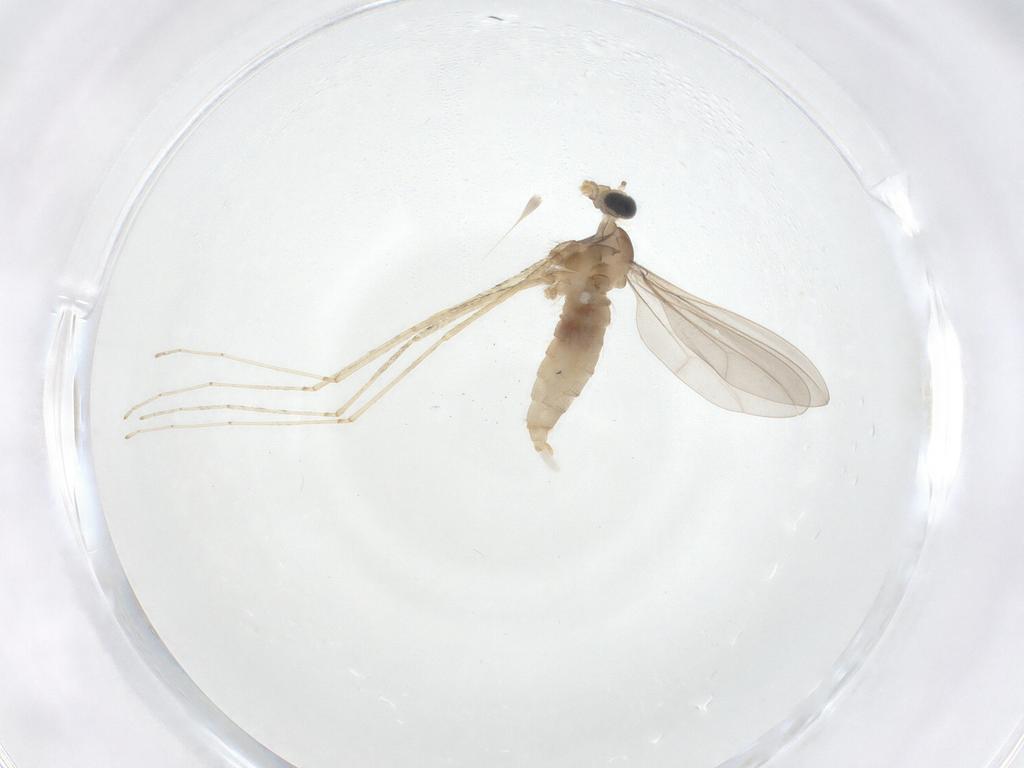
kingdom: Animalia
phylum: Arthropoda
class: Insecta
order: Diptera
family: Cecidomyiidae
